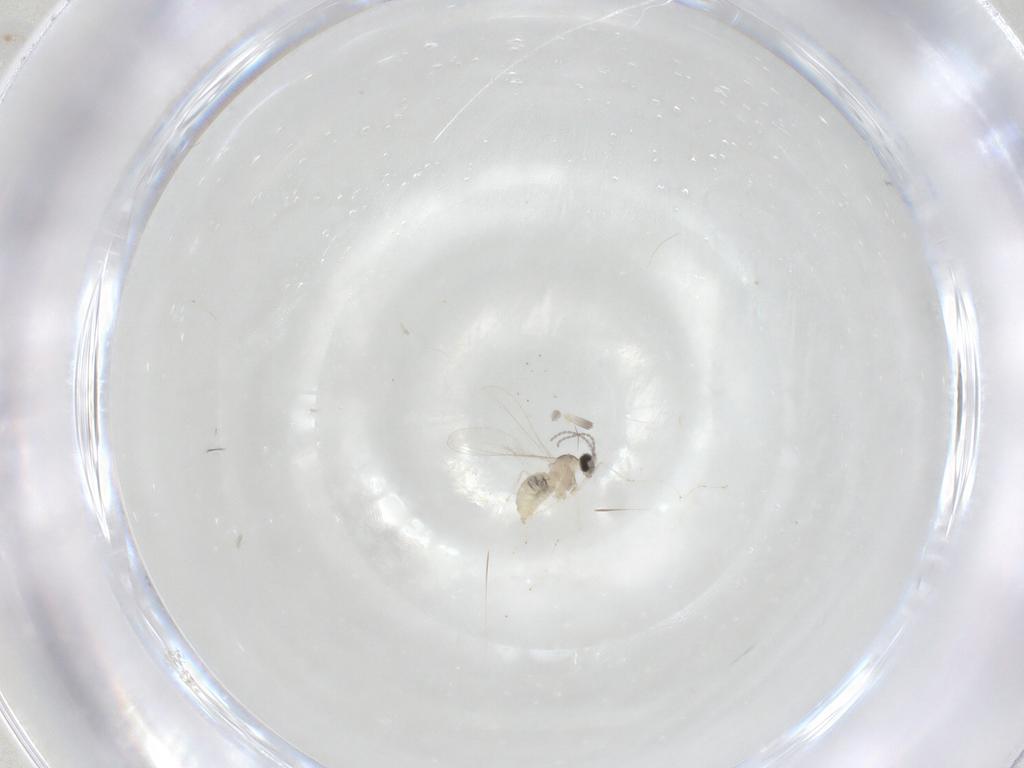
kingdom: Animalia
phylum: Arthropoda
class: Insecta
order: Diptera
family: Cecidomyiidae
